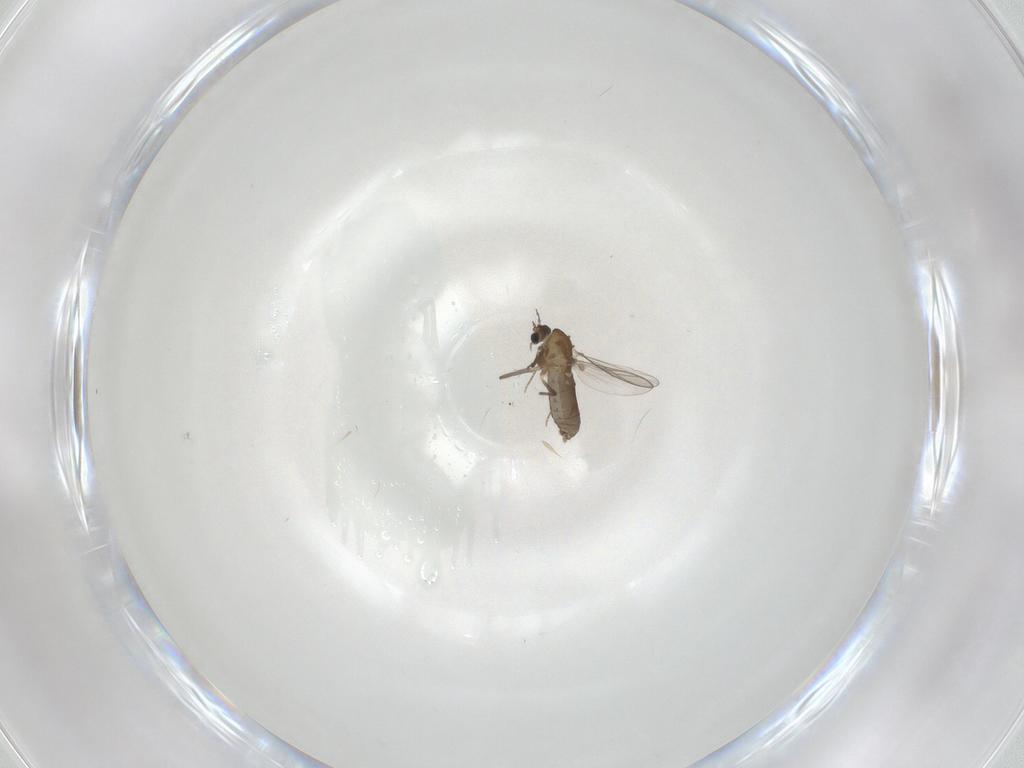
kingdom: Animalia
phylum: Arthropoda
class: Insecta
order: Diptera
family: Chironomidae
